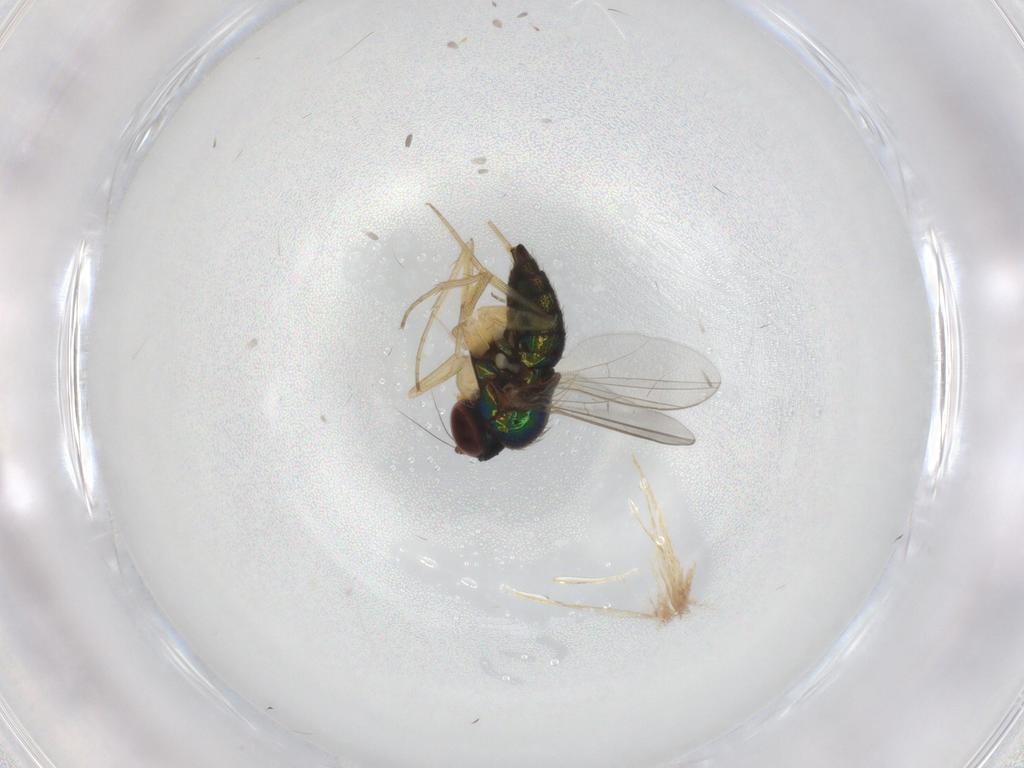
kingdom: Animalia
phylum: Arthropoda
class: Insecta
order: Diptera
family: Dolichopodidae
